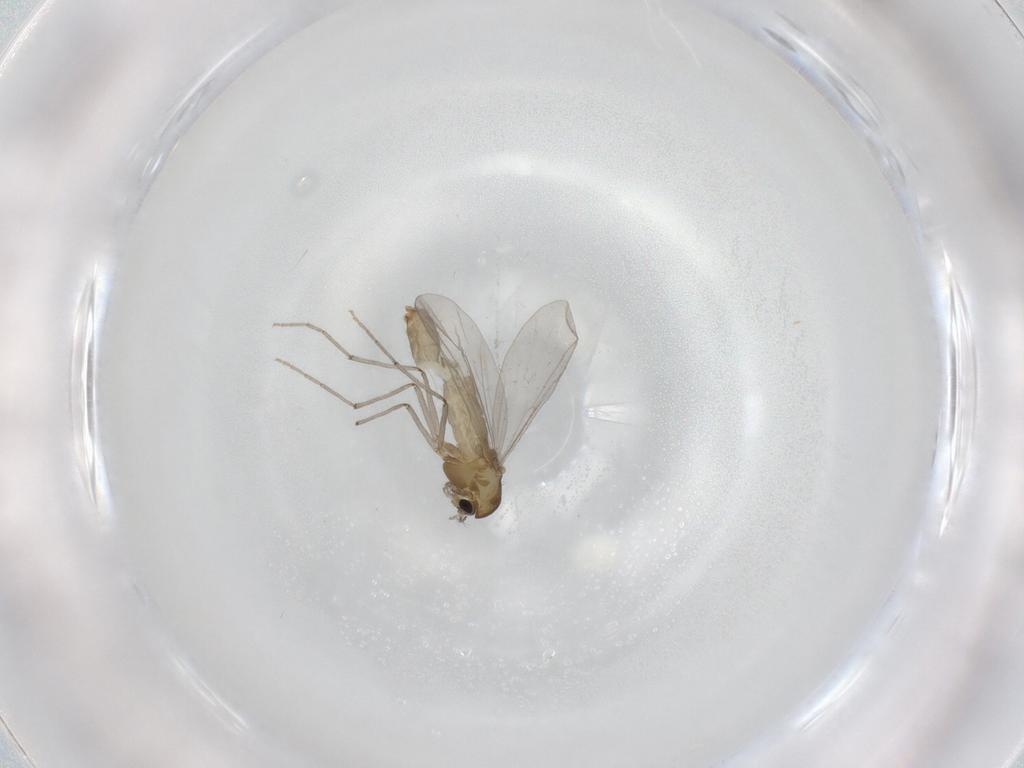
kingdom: Animalia
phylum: Arthropoda
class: Insecta
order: Diptera
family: Chironomidae
